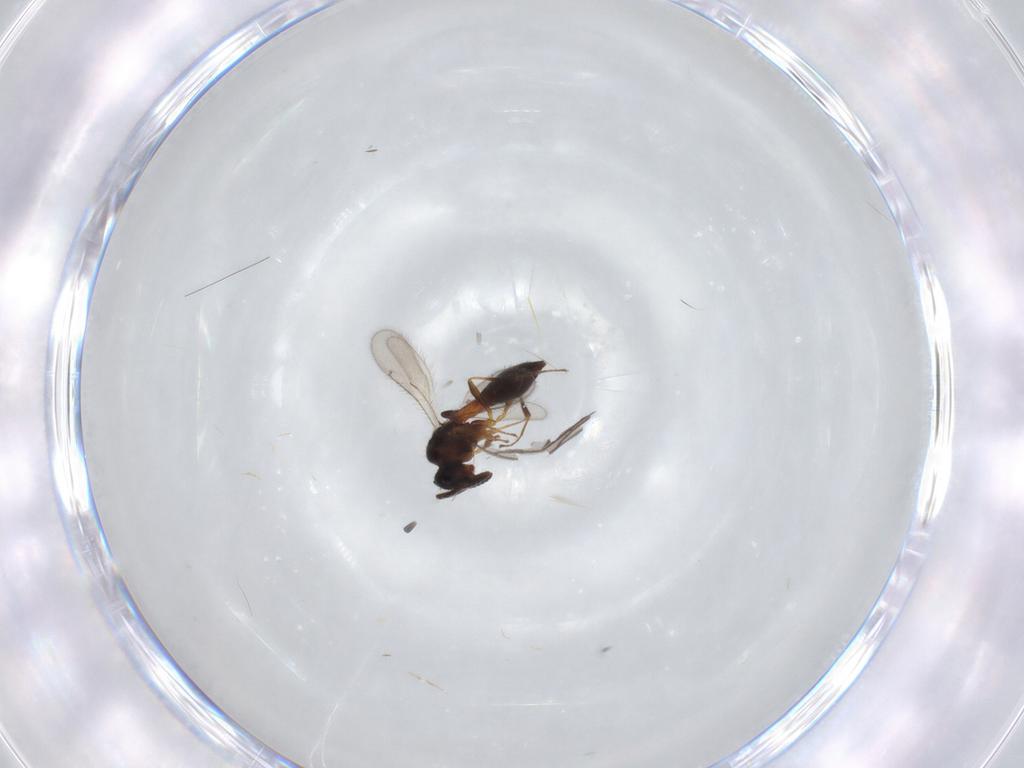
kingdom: Animalia
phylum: Arthropoda
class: Insecta
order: Hymenoptera
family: Scelionidae
